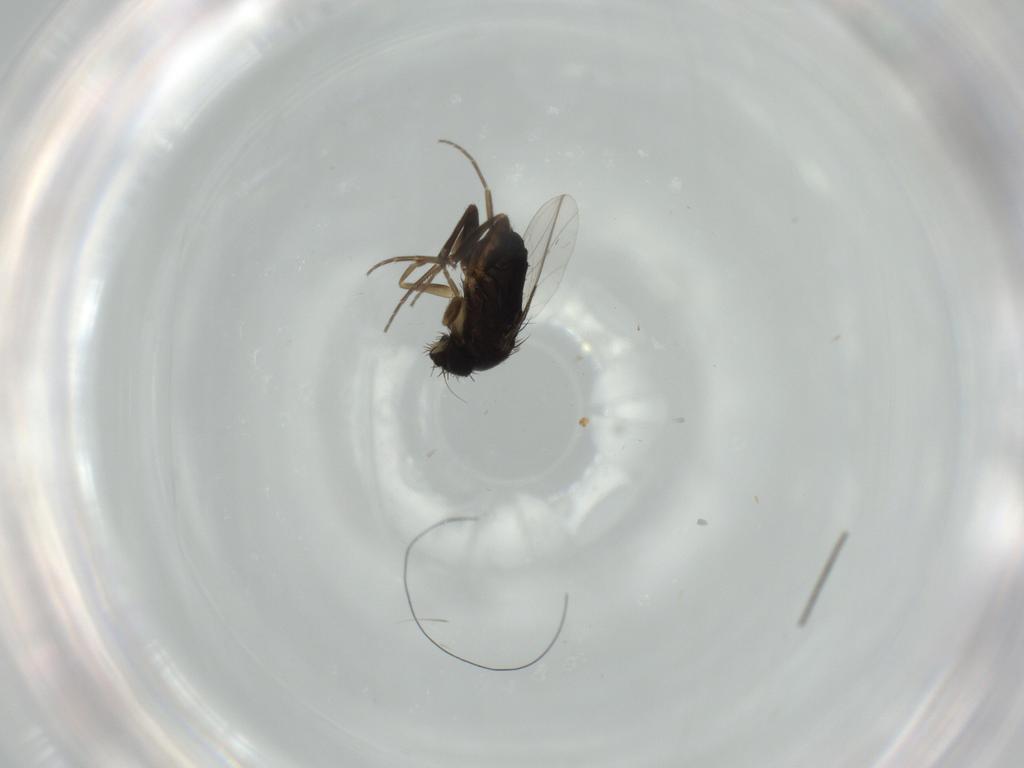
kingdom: Animalia
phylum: Arthropoda
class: Insecta
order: Diptera
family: Phoridae
